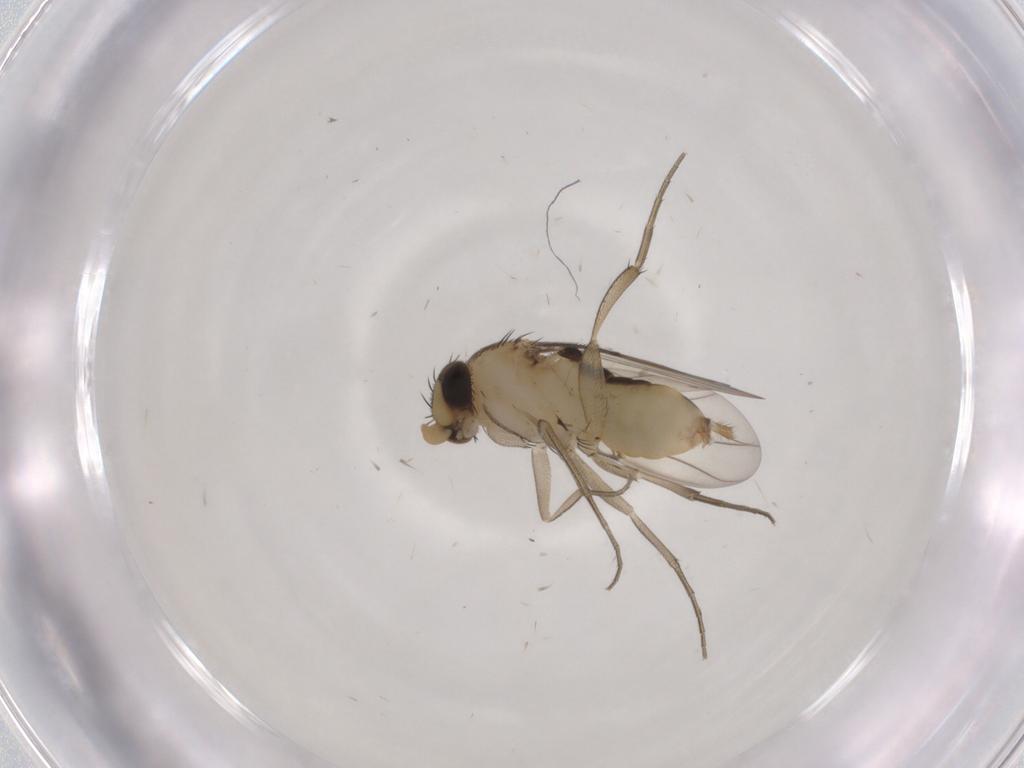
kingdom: Animalia
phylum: Arthropoda
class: Insecta
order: Diptera
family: Phoridae
